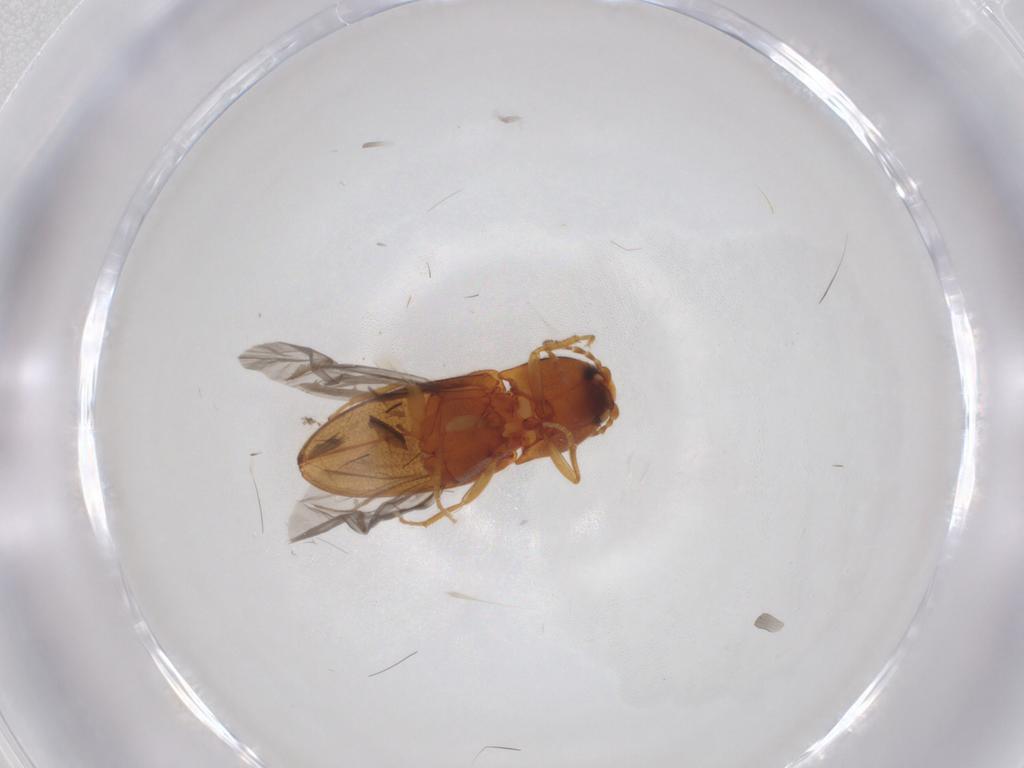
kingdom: Animalia
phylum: Arthropoda
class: Insecta
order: Coleoptera
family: Elateridae
